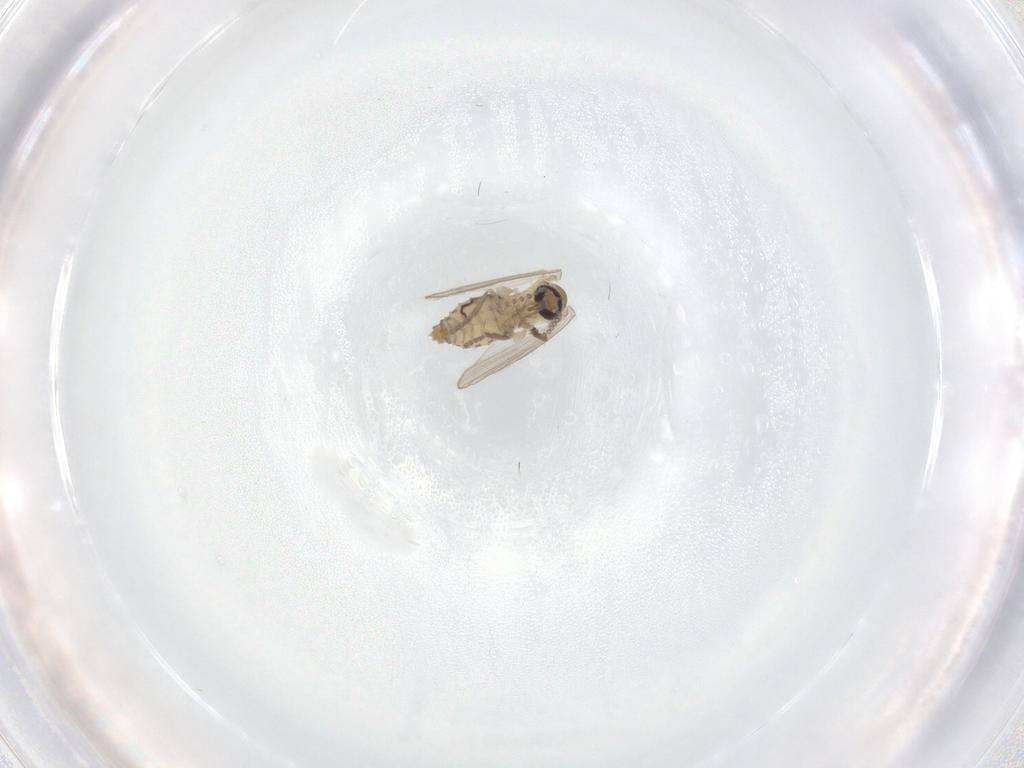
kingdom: Animalia
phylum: Arthropoda
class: Insecta
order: Diptera
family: Psychodidae
